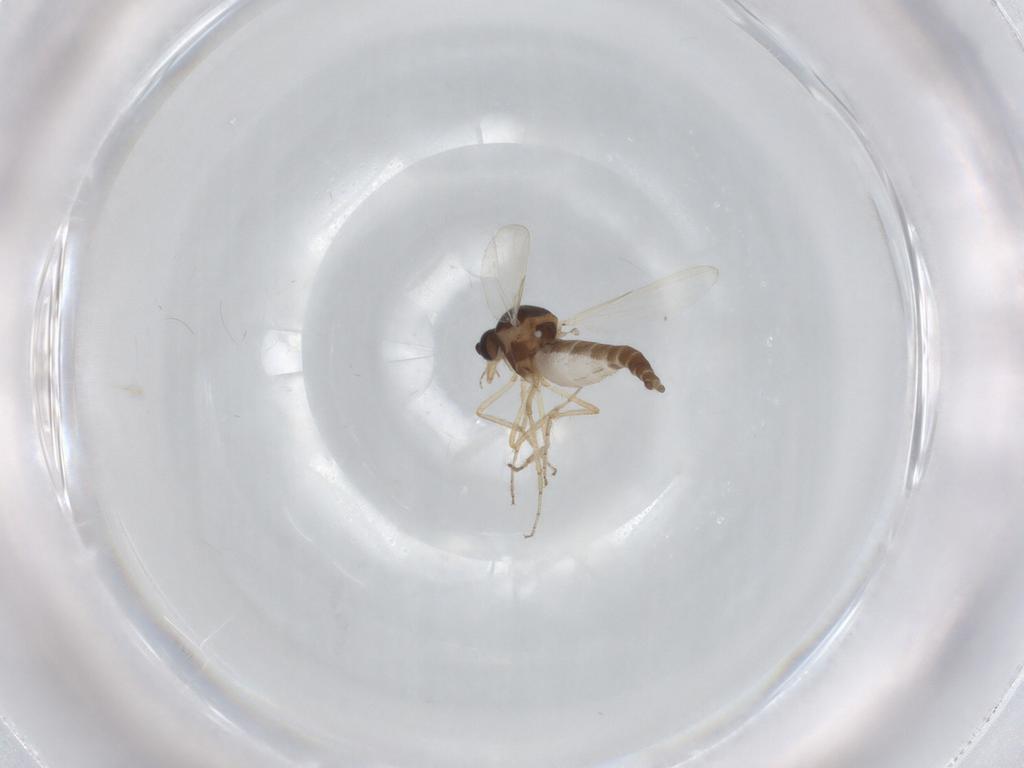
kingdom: Animalia
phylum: Arthropoda
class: Insecta
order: Diptera
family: Ceratopogonidae
